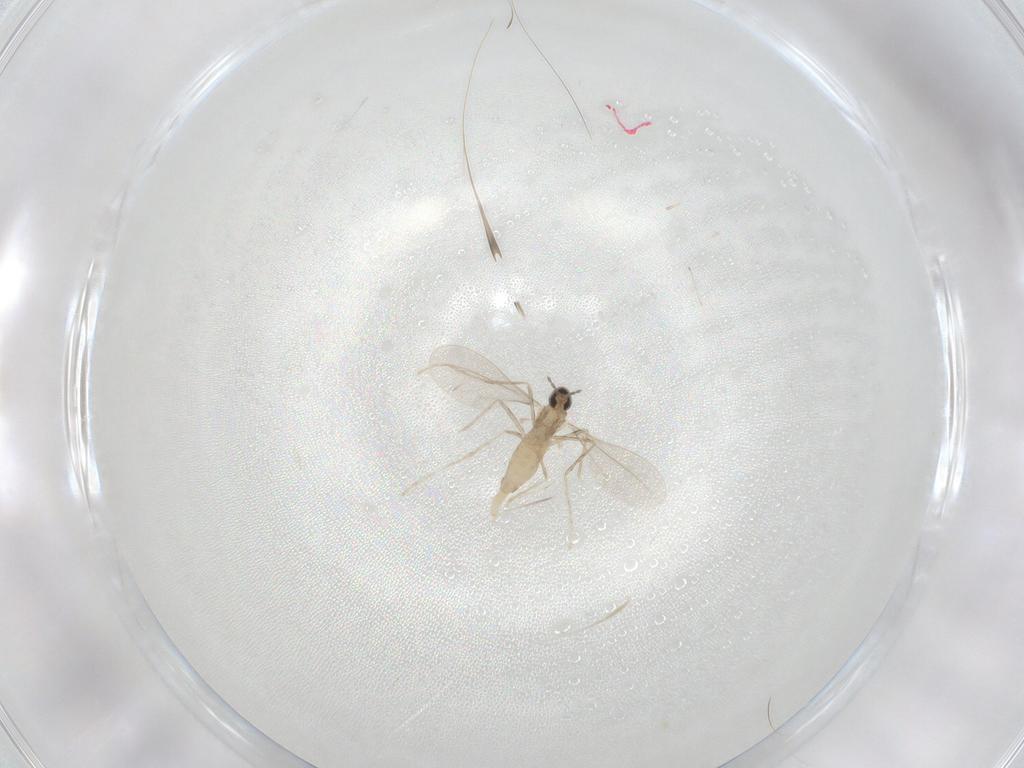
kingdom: Animalia
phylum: Arthropoda
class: Insecta
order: Diptera
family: Cecidomyiidae
